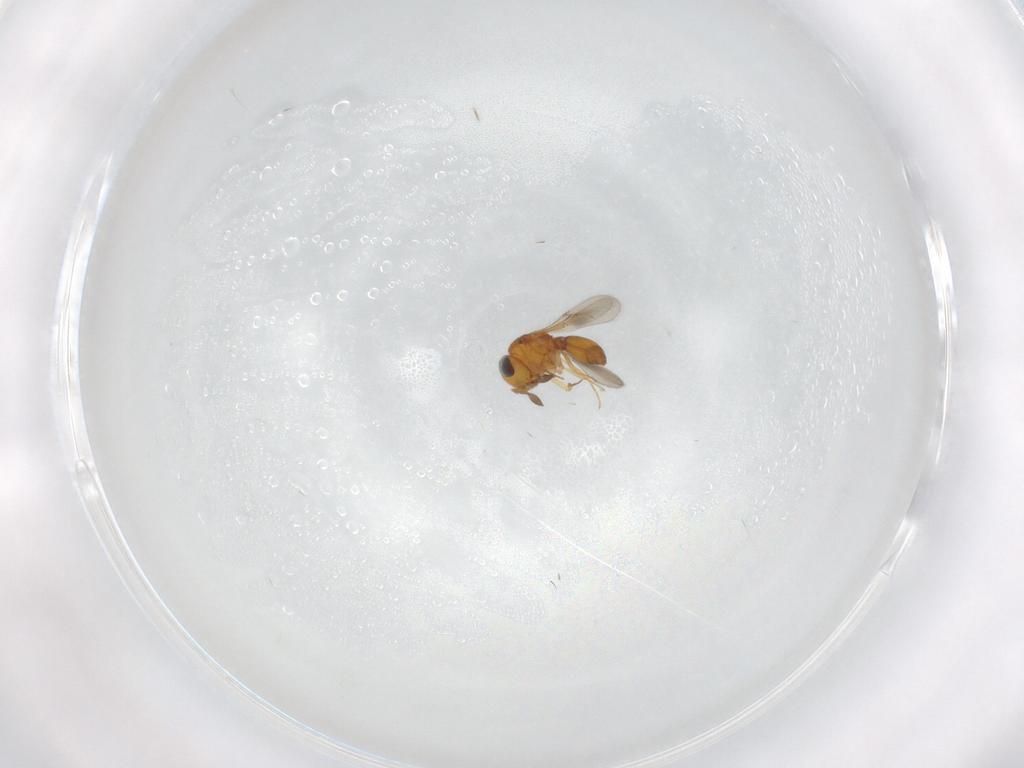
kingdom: Animalia
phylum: Arthropoda
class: Insecta
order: Hymenoptera
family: Scelionidae
